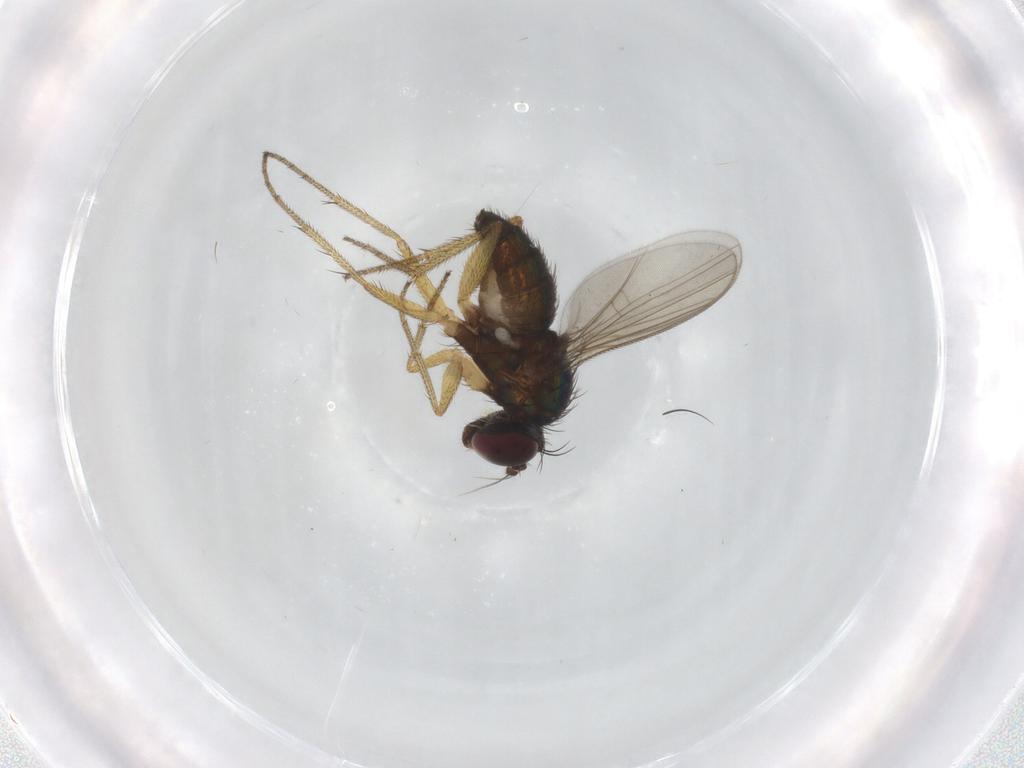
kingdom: Animalia
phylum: Arthropoda
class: Insecta
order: Diptera
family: Dolichopodidae
